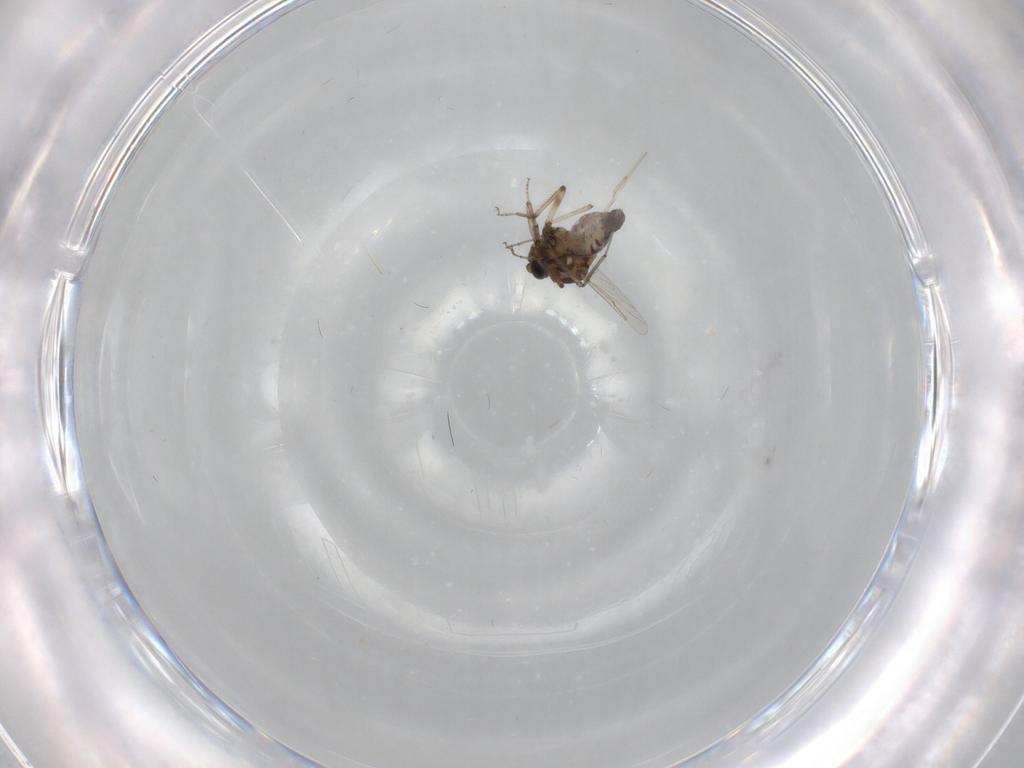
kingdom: Animalia
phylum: Arthropoda
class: Insecta
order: Diptera
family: Ceratopogonidae
